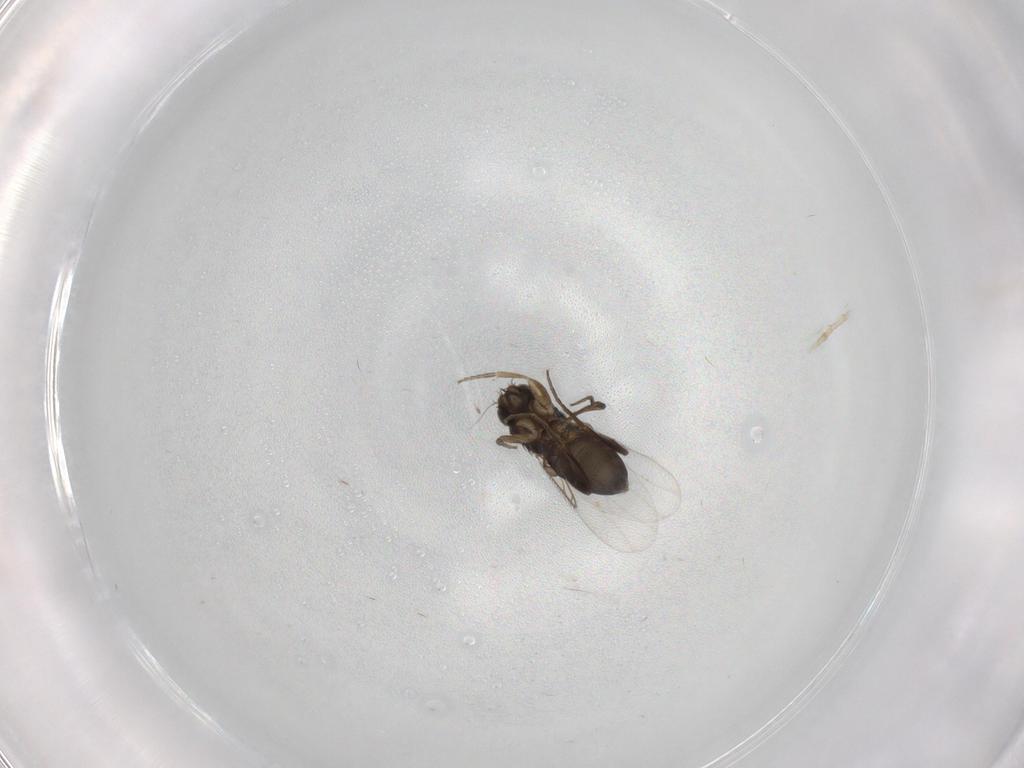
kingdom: Animalia
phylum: Arthropoda
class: Insecta
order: Diptera
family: Phoridae
